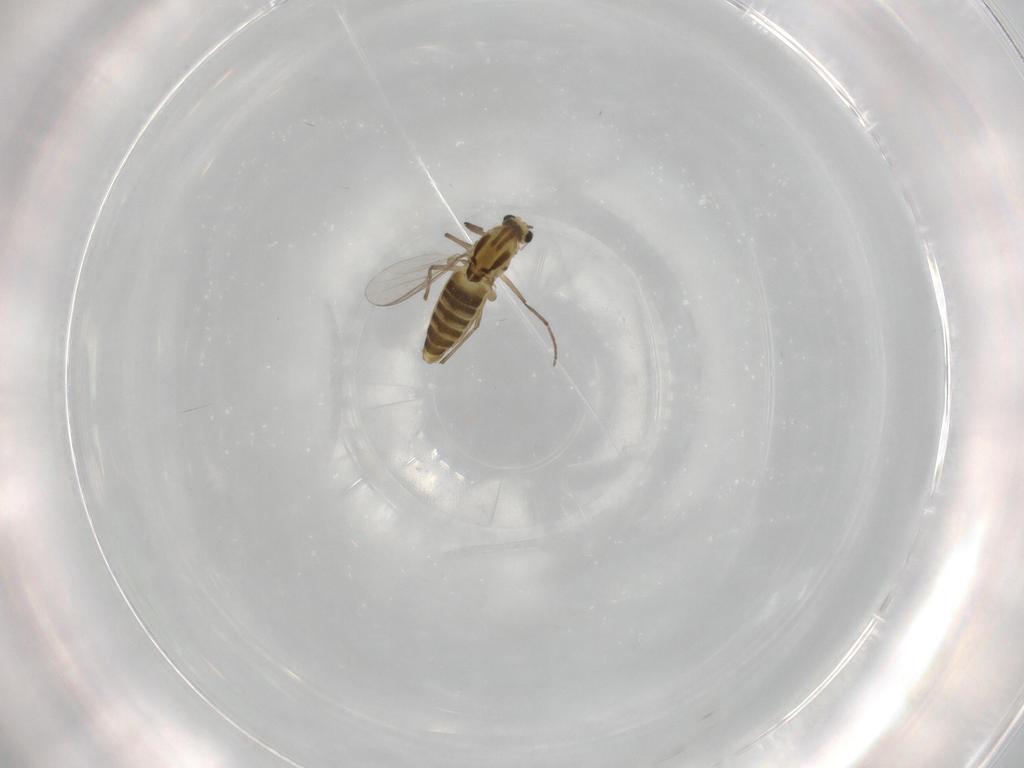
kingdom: Animalia
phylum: Arthropoda
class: Insecta
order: Diptera
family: Chironomidae
